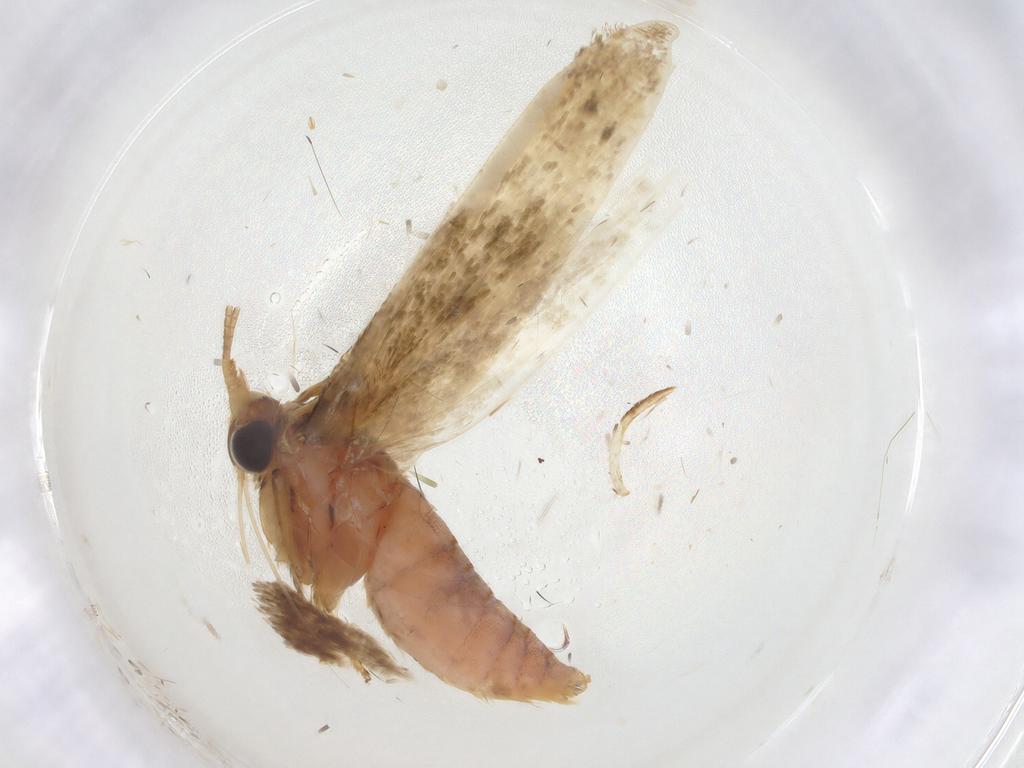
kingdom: Animalia
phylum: Arthropoda
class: Insecta
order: Lepidoptera
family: Blastobasidae
